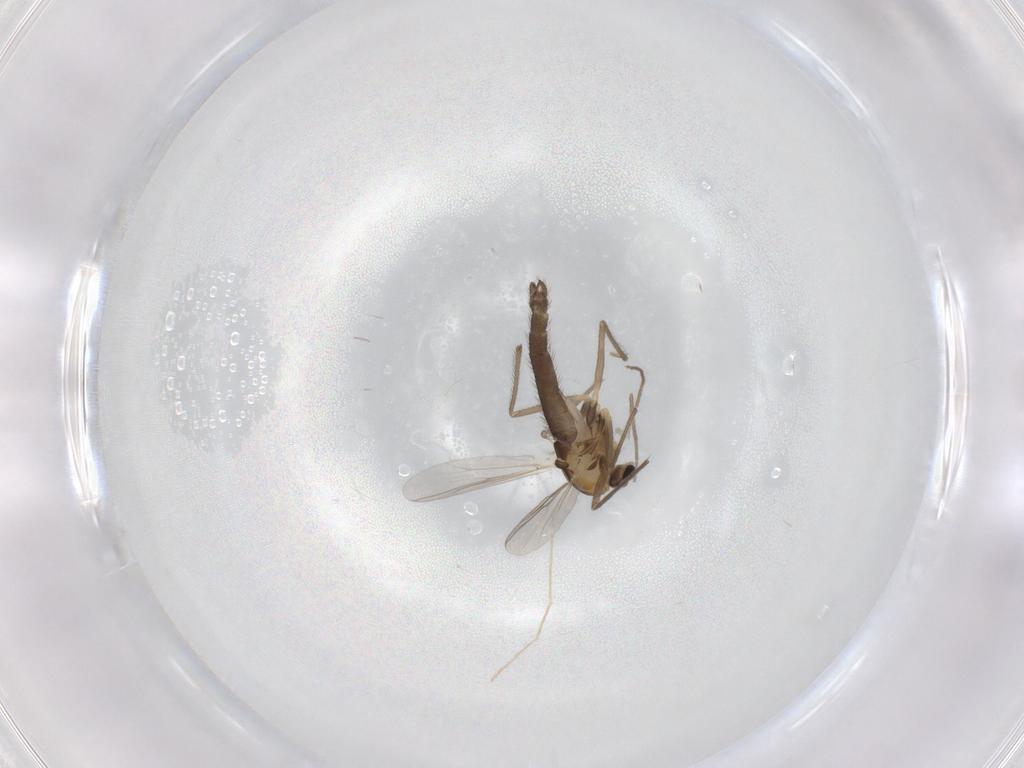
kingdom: Animalia
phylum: Arthropoda
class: Insecta
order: Diptera
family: Chironomidae
